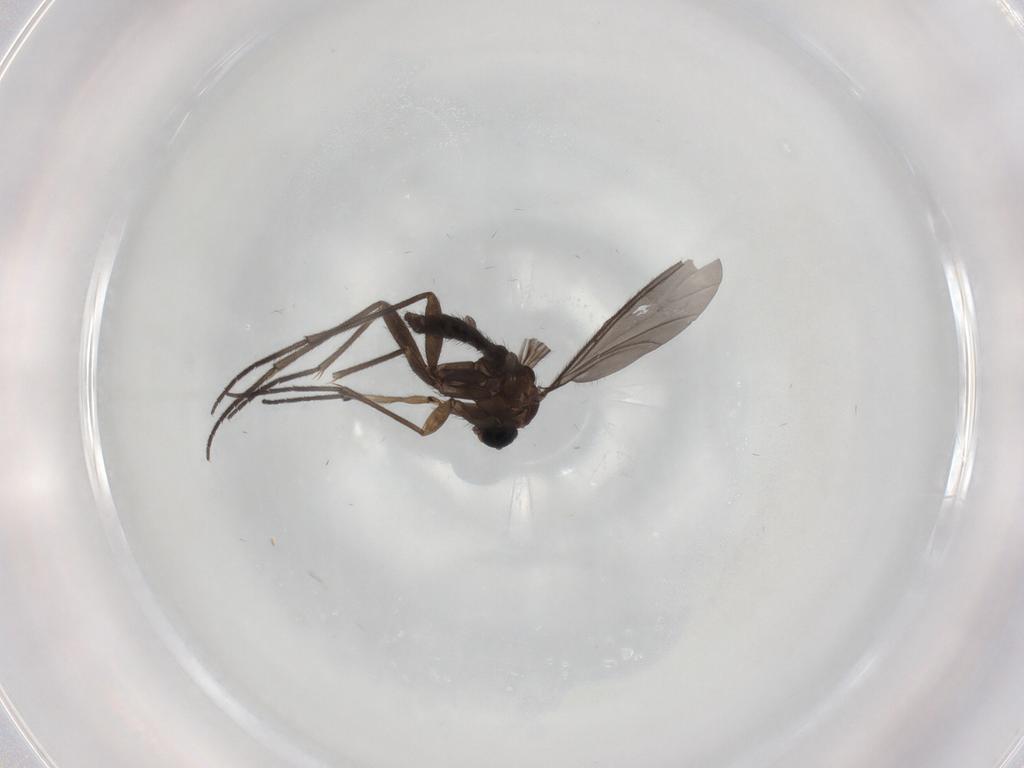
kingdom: Animalia
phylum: Arthropoda
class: Insecta
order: Diptera
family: Sciaridae
